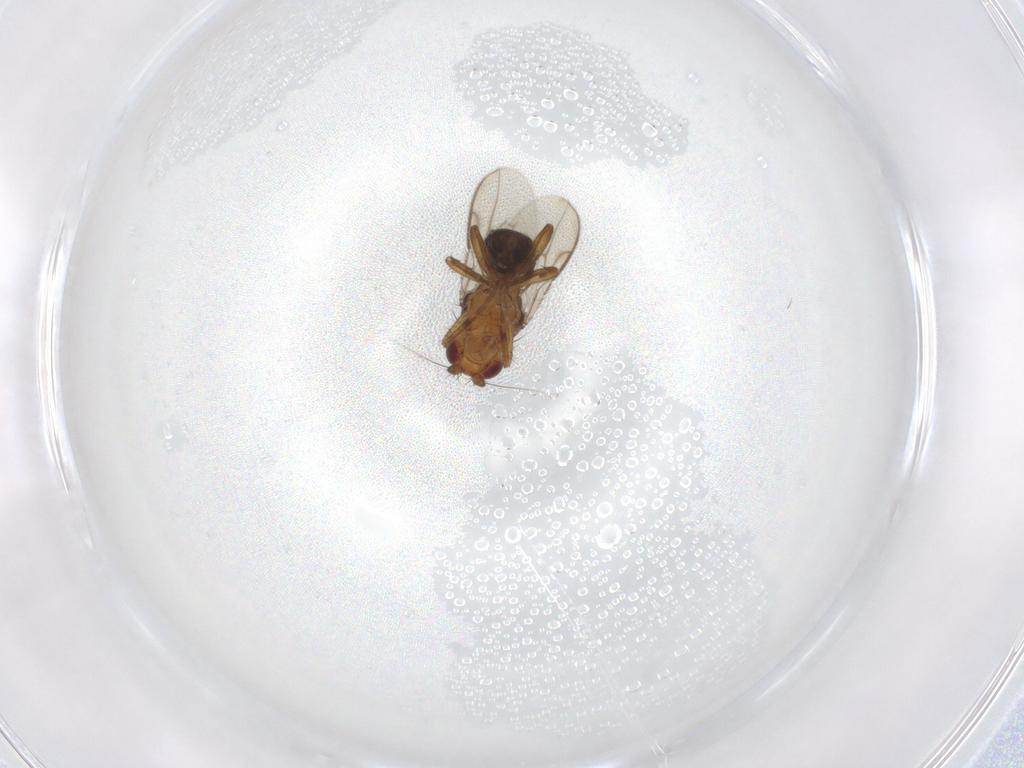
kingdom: Animalia
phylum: Arthropoda
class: Insecta
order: Diptera
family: Sphaeroceridae
